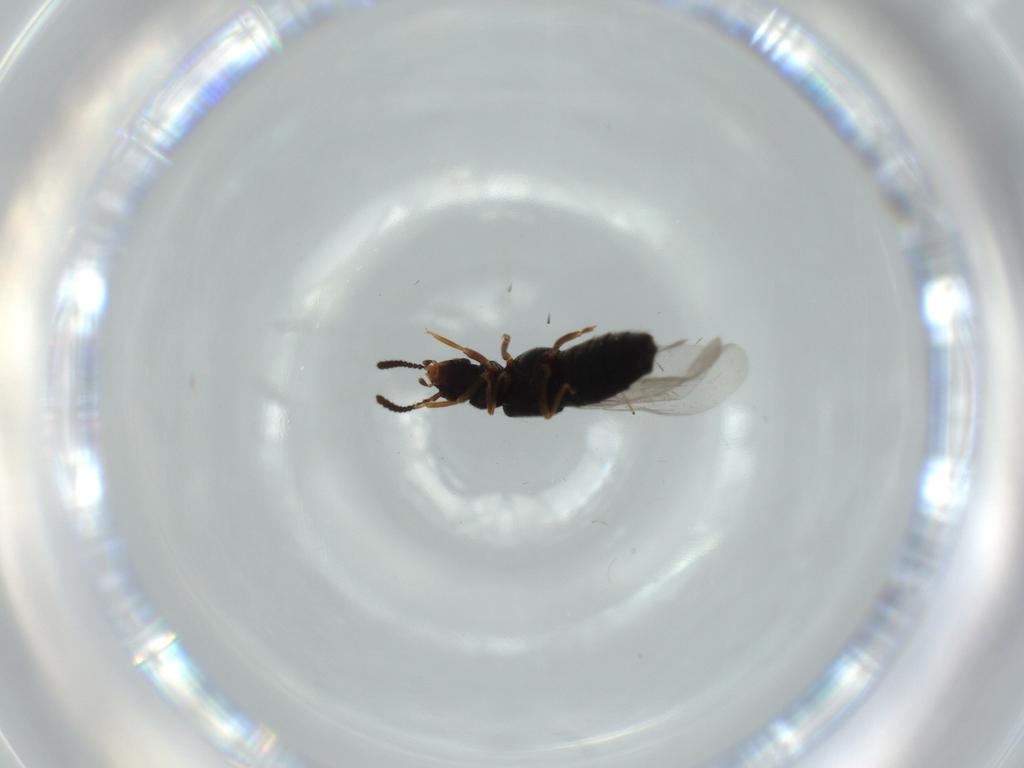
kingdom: Animalia
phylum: Arthropoda
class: Insecta
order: Coleoptera
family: Staphylinidae
